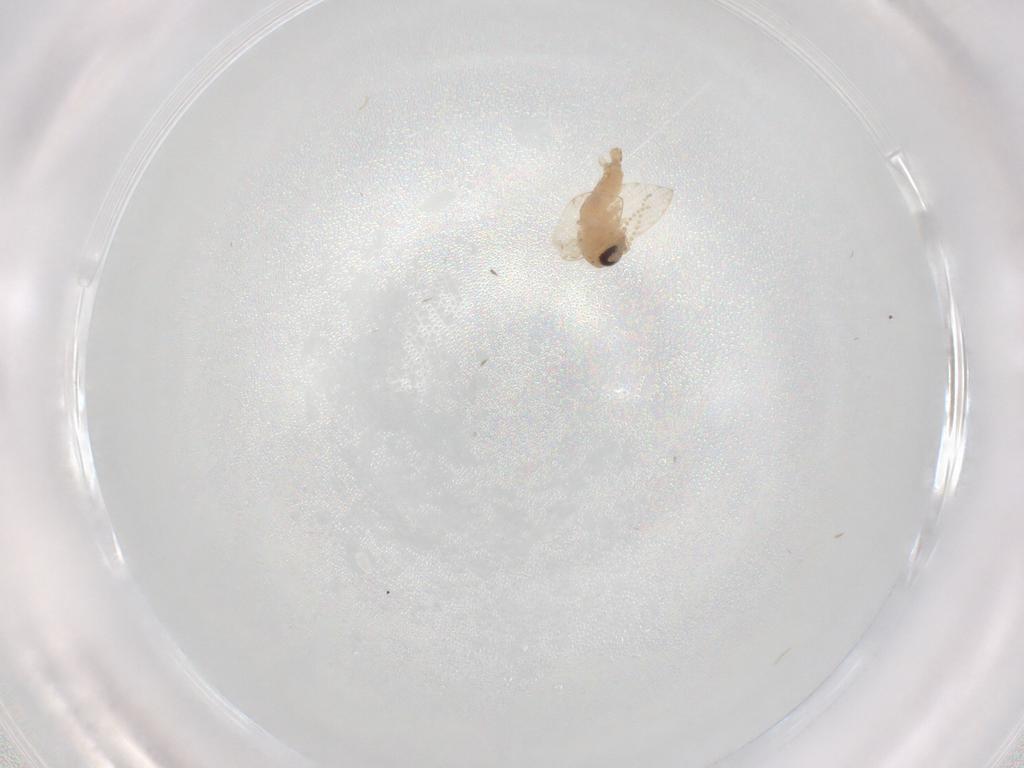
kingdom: Animalia
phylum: Arthropoda
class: Insecta
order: Diptera
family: Psychodidae
